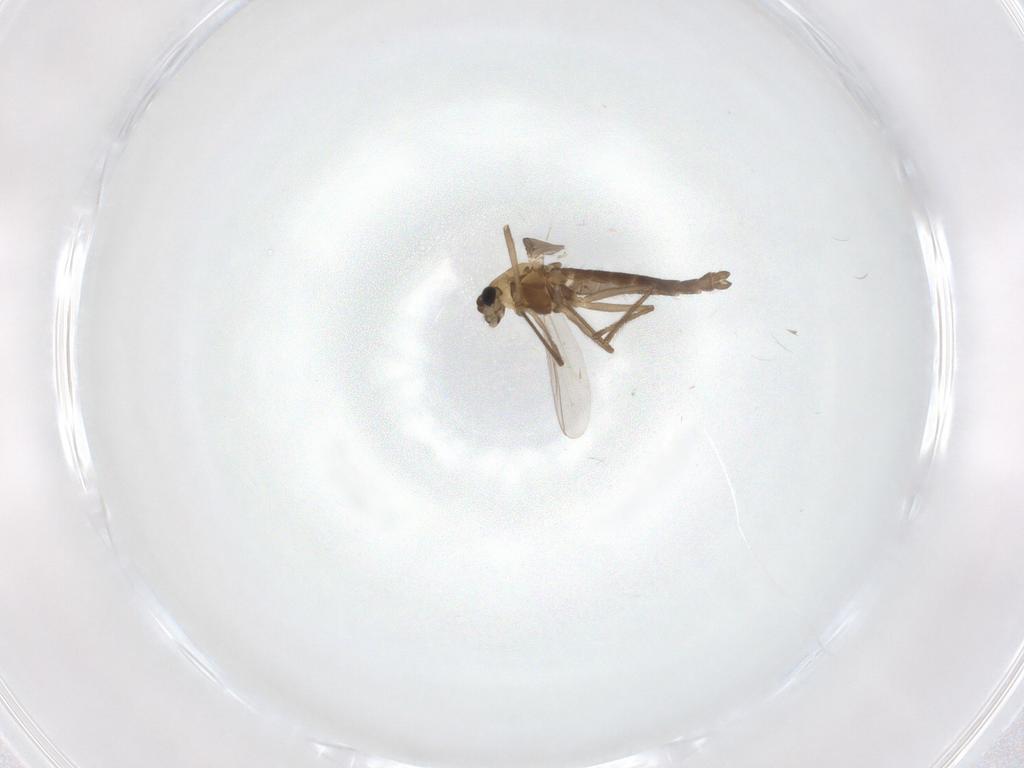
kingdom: Animalia
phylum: Arthropoda
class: Insecta
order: Diptera
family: Chironomidae
